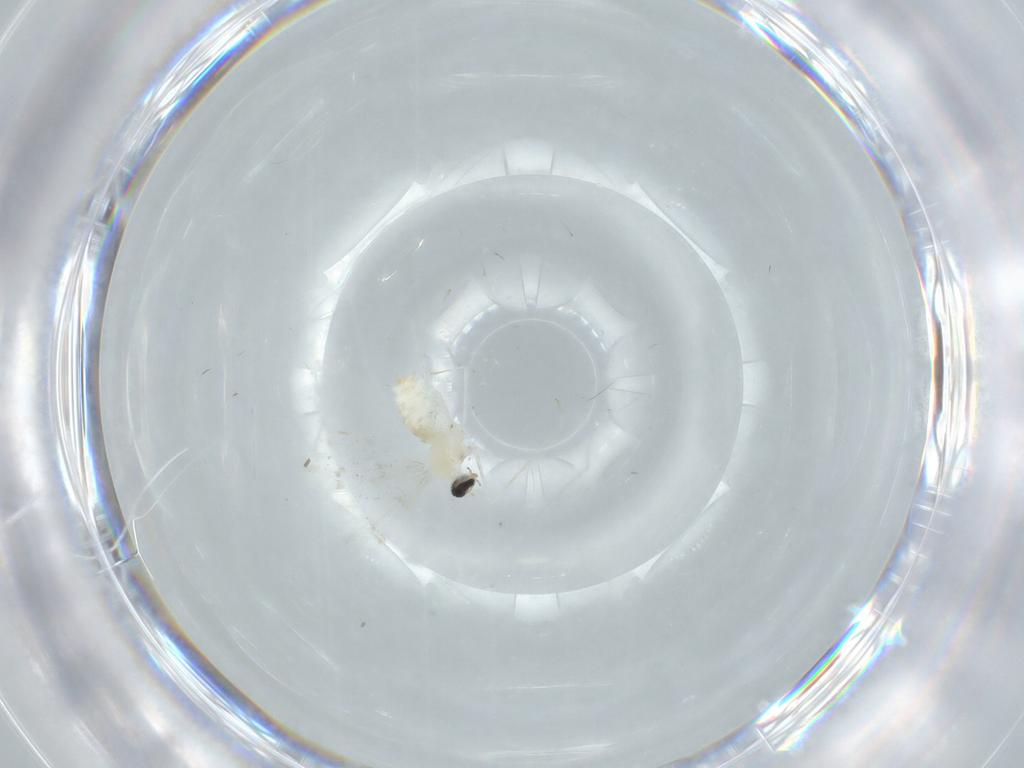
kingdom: Animalia
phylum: Arthropoda
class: Insecta
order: Diptera
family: Cecidomyiidae
